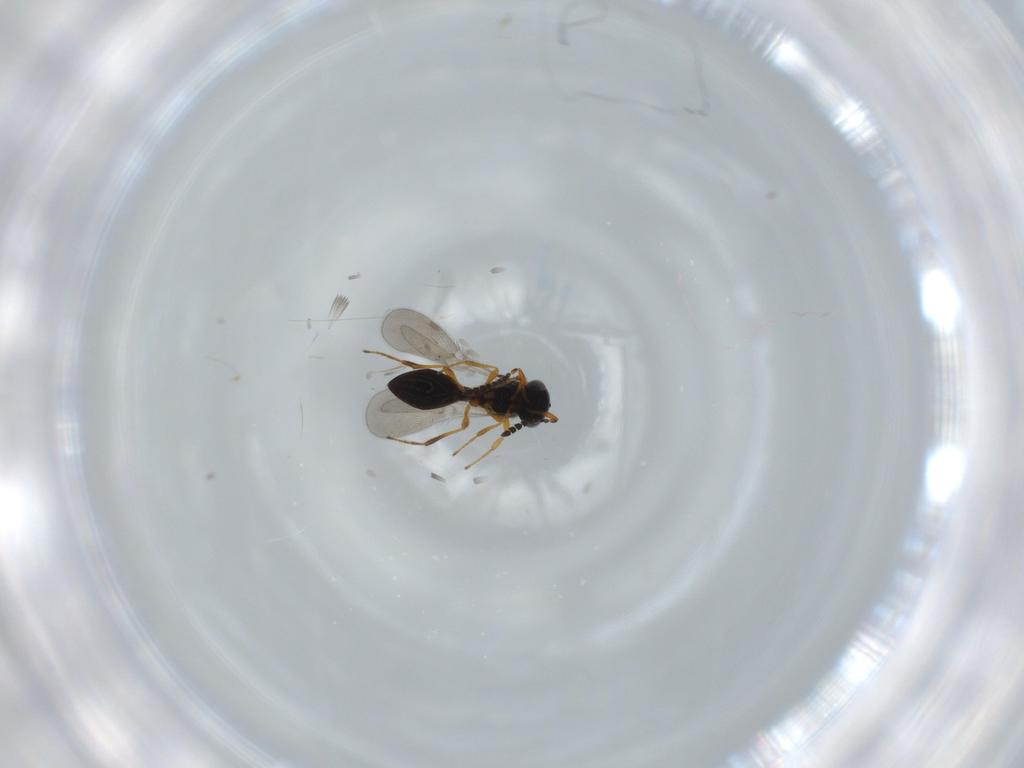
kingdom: Animalia
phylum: Arthropoda
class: Insecta
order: Hymenoptera
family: Platygastridae
